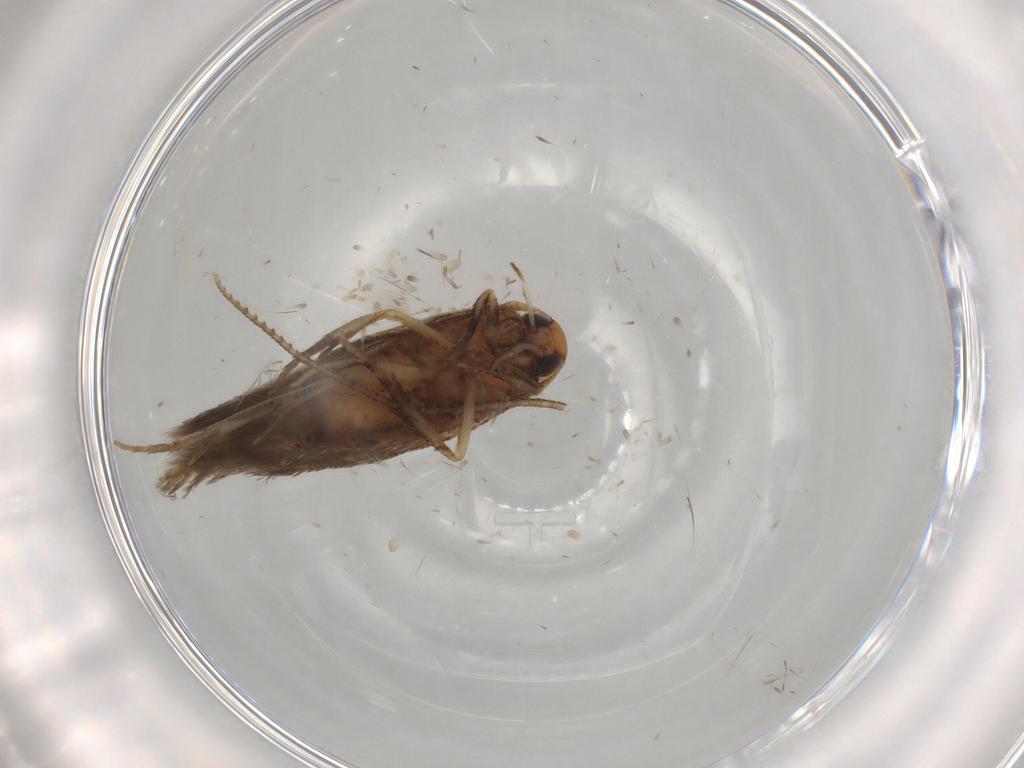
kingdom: Animalia
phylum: Arthropoda
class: Insecta
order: Lepidoptera
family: Cosmopterigidae
